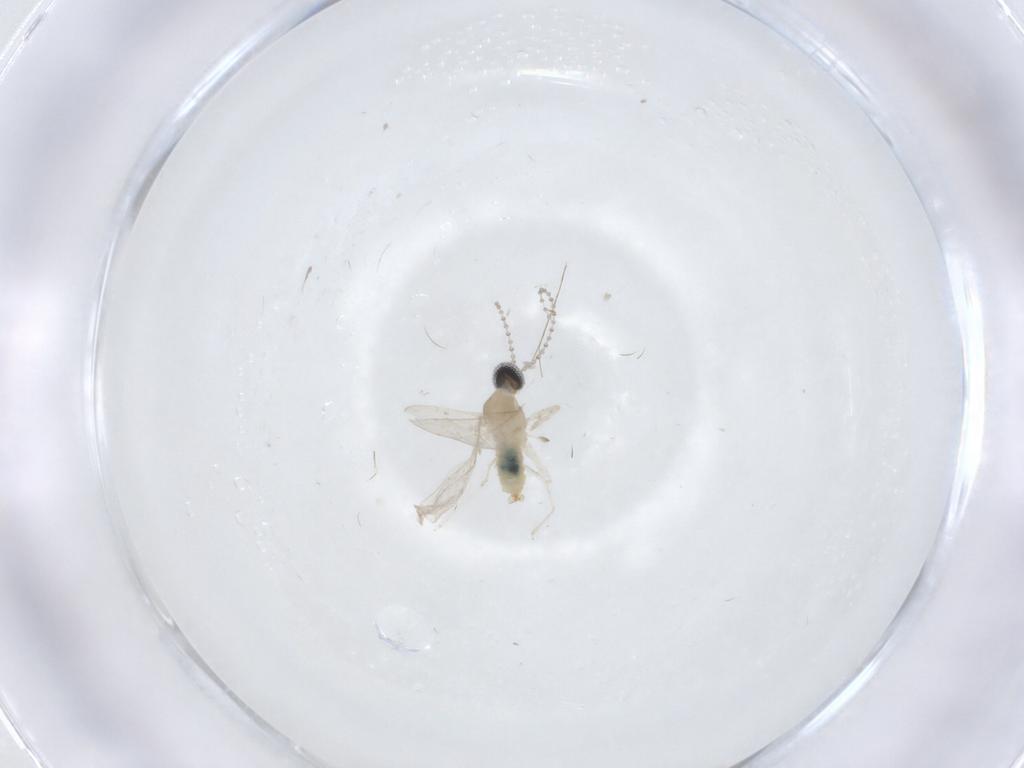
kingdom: Animalia
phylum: Arthropoda
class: Insecta
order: Diptera
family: Cecidomyiidae
